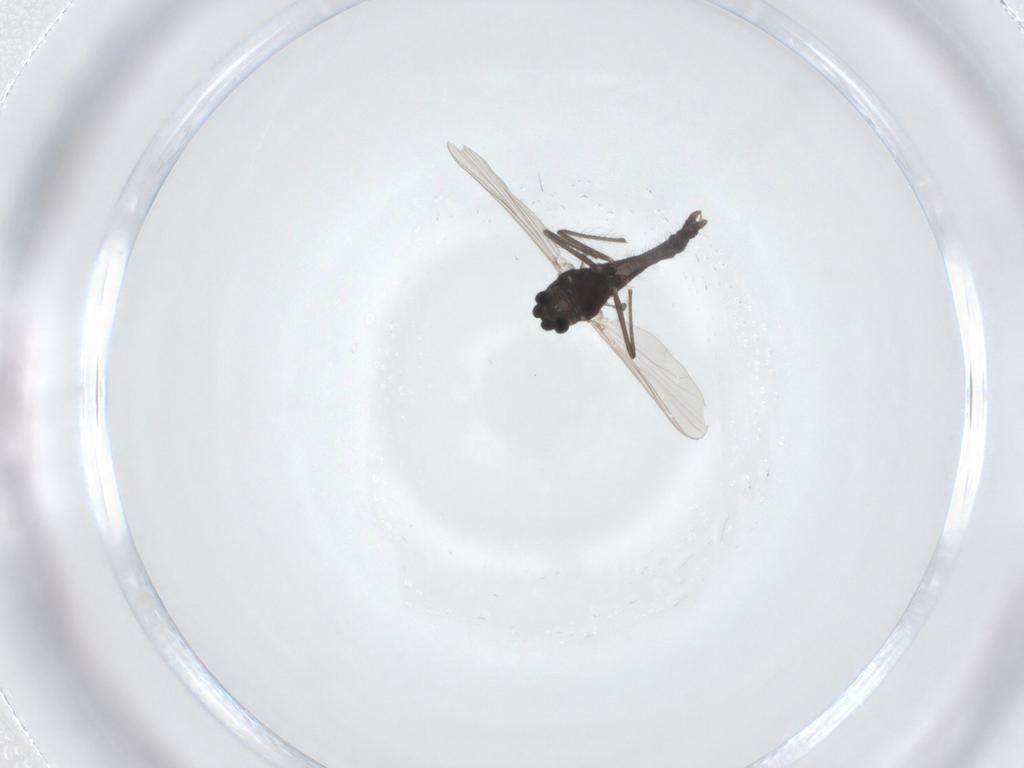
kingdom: Animalia
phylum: Arthropoda
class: Insecta
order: Diptera
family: Chironomidae
